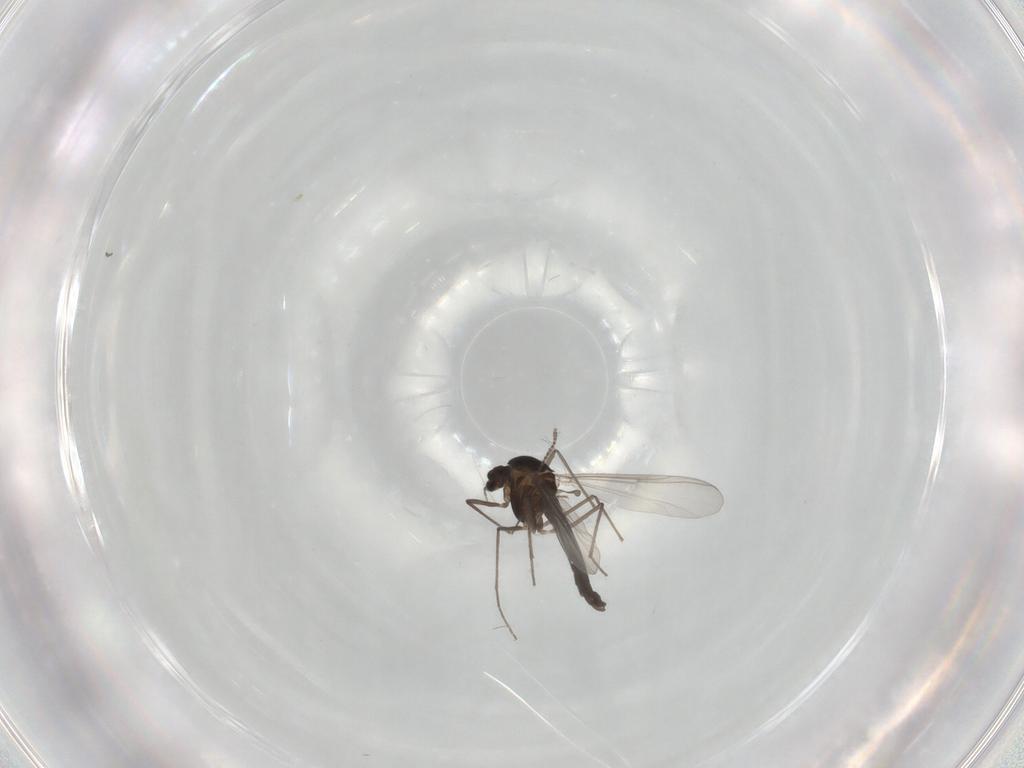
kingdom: Animalia
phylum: Arthropoda
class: Insecta
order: Diptera
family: Chironomidae
